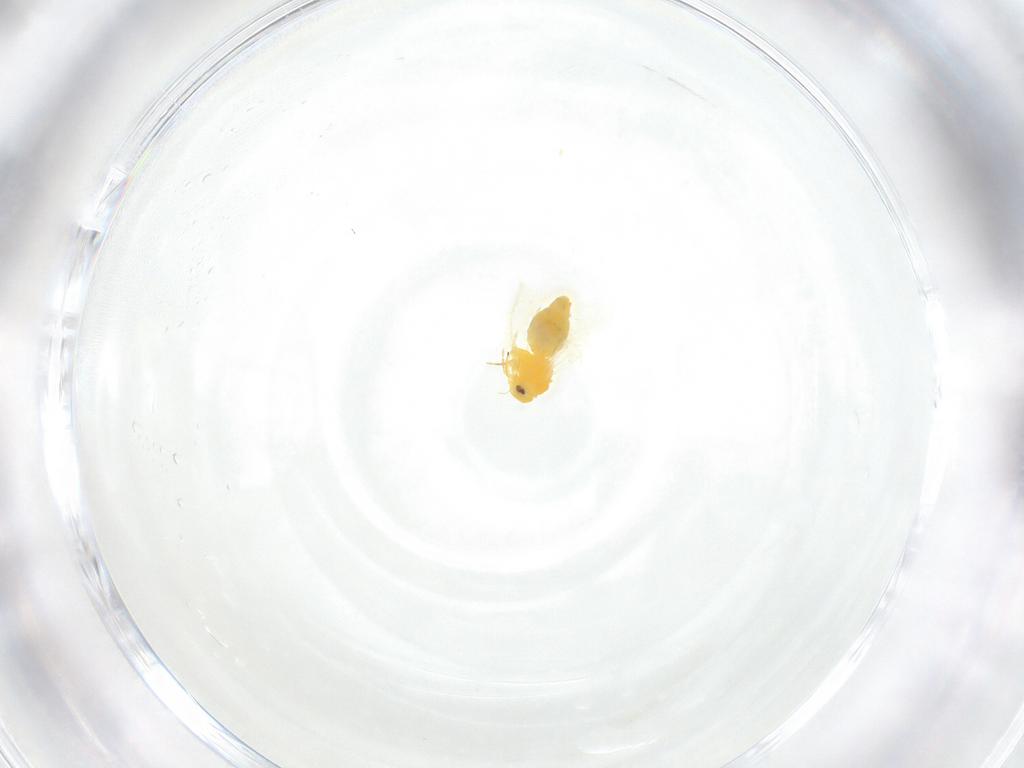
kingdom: Animalia
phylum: Arthropoda
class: Insecta
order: Hemiptera
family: Aleyrodidae
